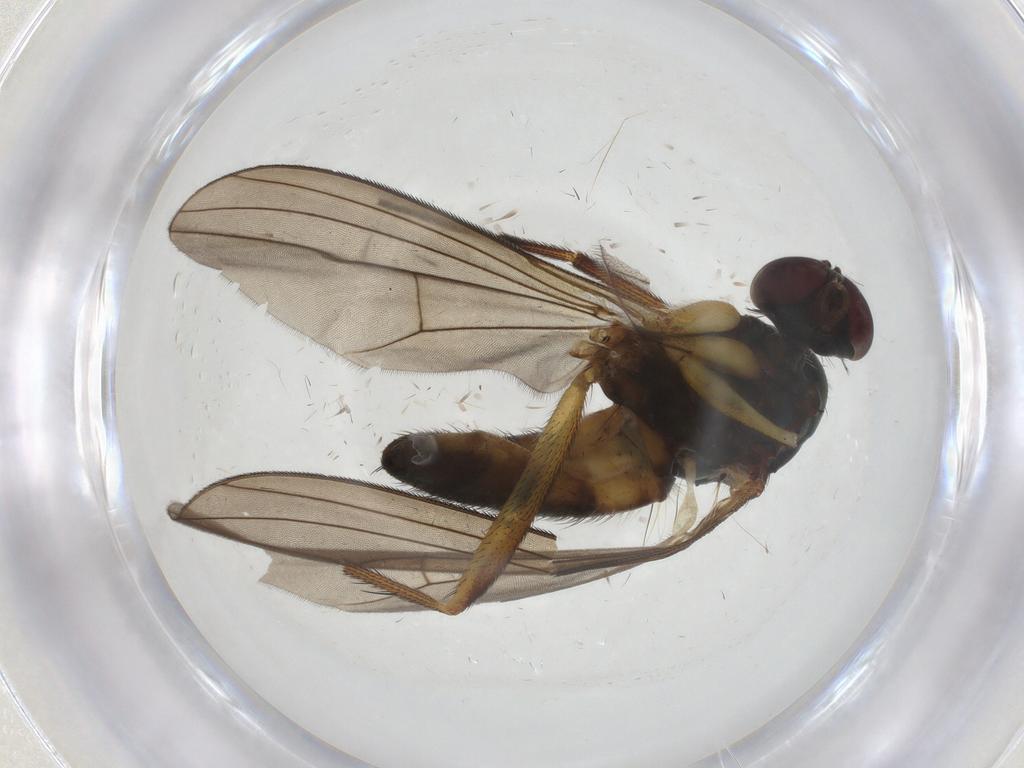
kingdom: Animalia
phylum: Arthropoda
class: Insecta
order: Diptera
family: Dolichopodidae
